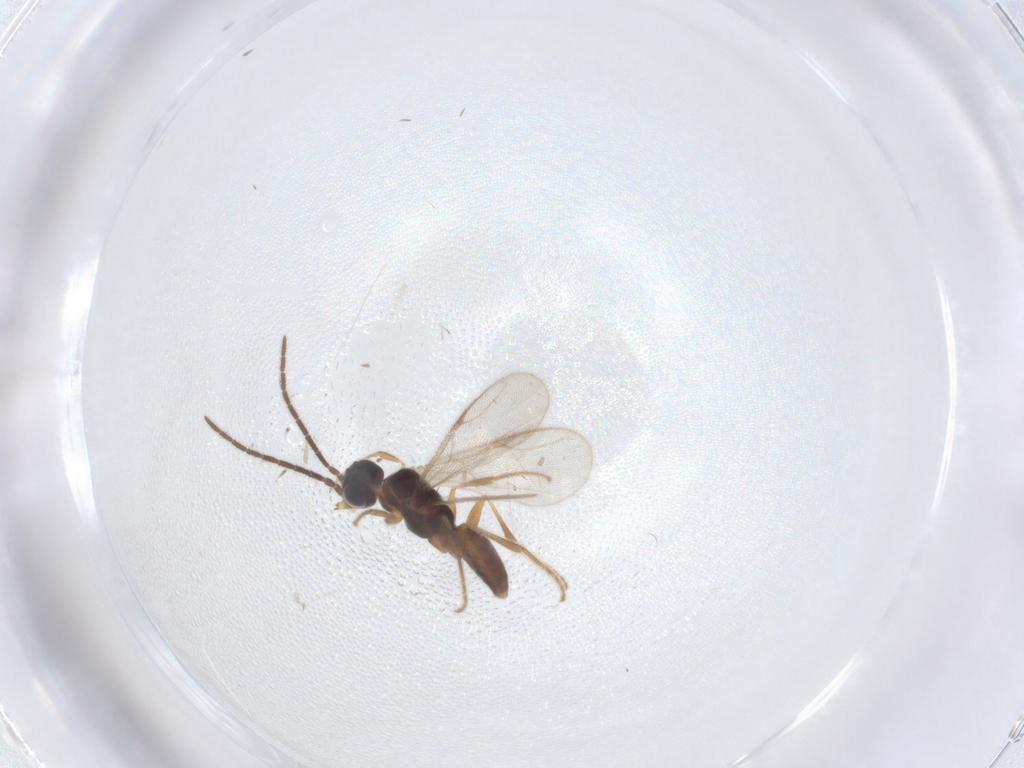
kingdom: Animalia
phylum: Arthropoda
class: Insecta
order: Hymenoptera
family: Dryinidae
